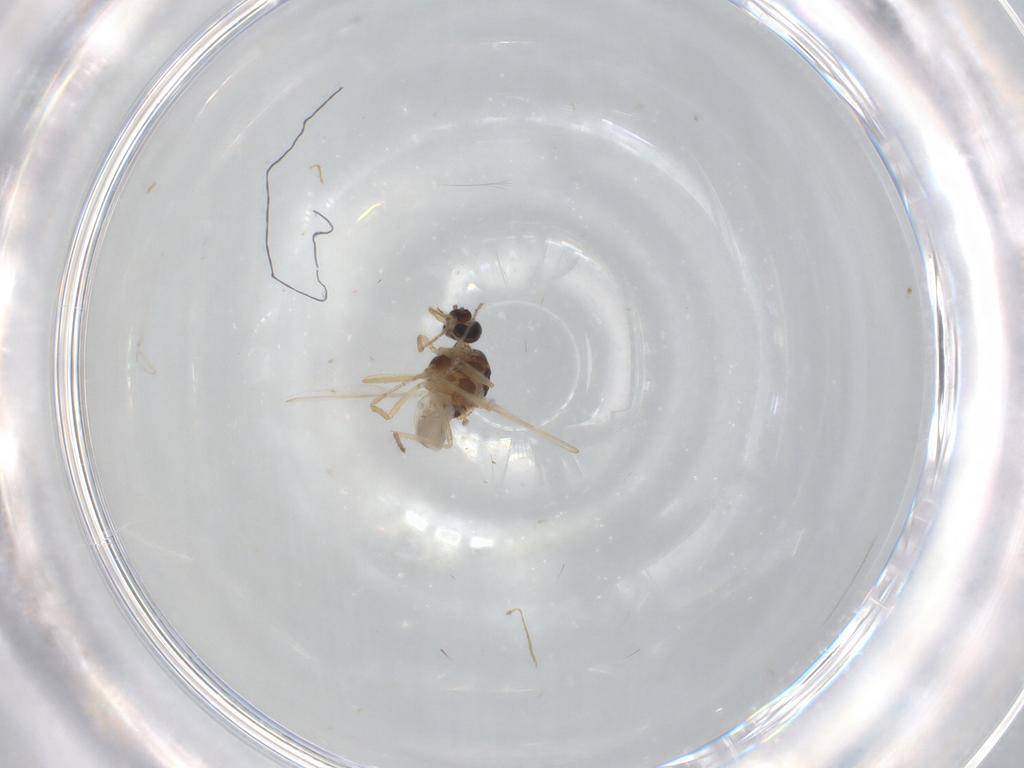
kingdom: Animalia
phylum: Arthropoda
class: Insecta
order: Diptera
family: Ceratopogonidae
